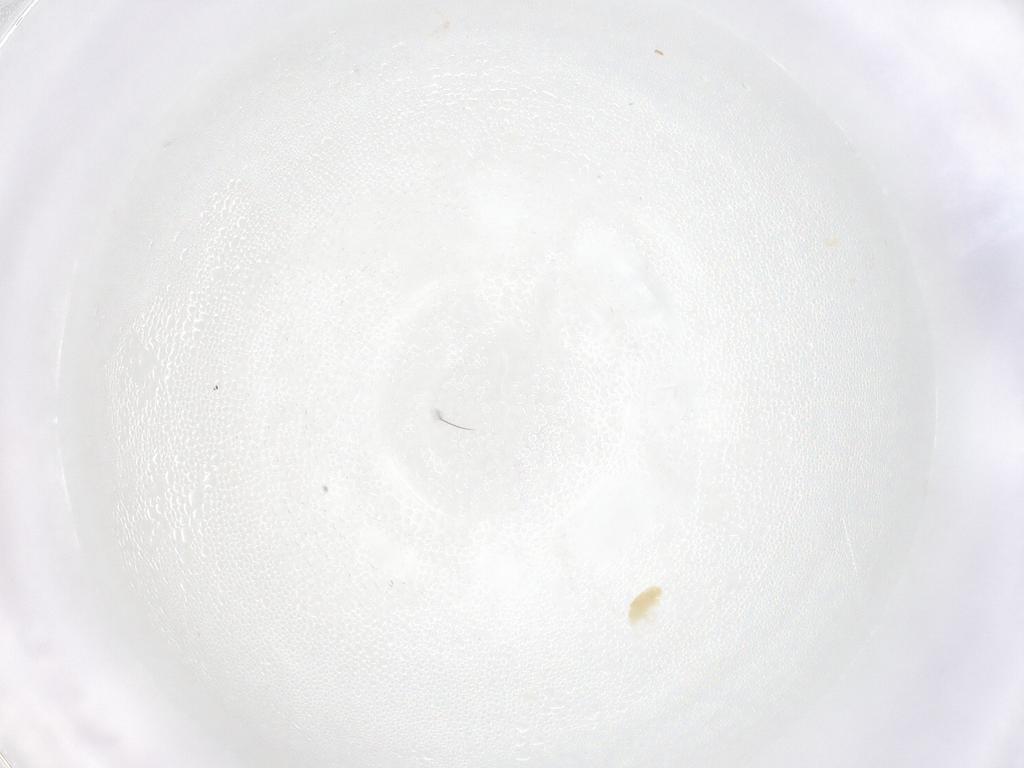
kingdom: Animalia
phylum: Arthropoda
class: Arachnida
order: Trombidiformes
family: Eupodidae
